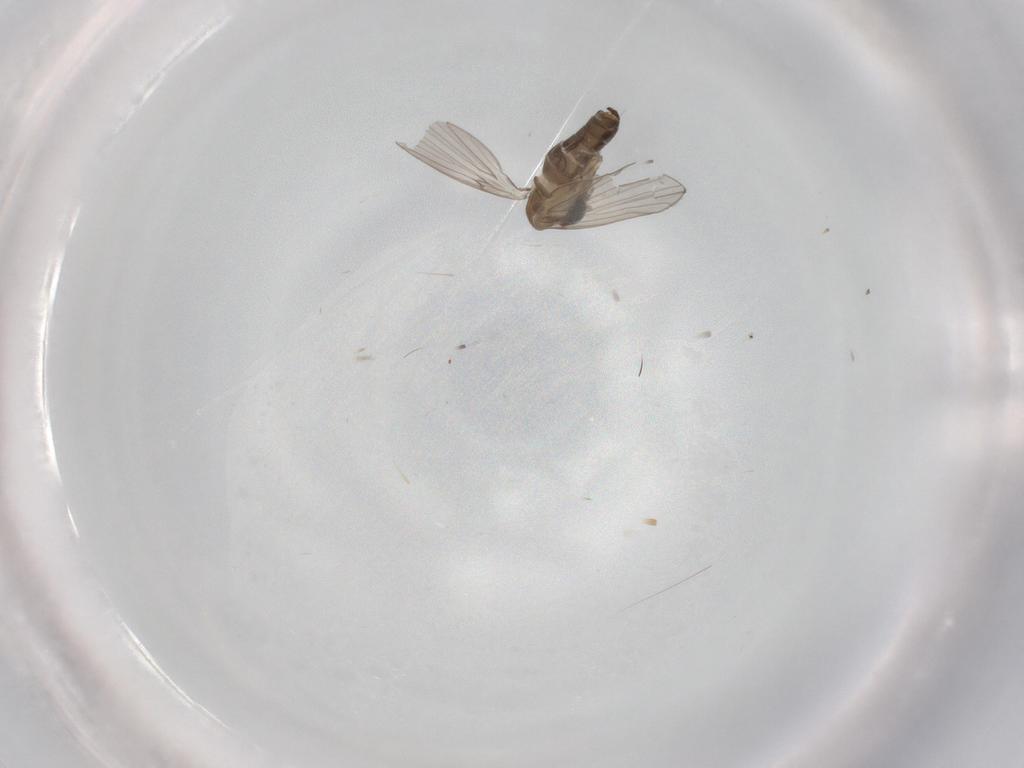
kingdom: Animalia
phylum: Arthropoda
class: Insecta
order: Diptera
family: Psychodidae
